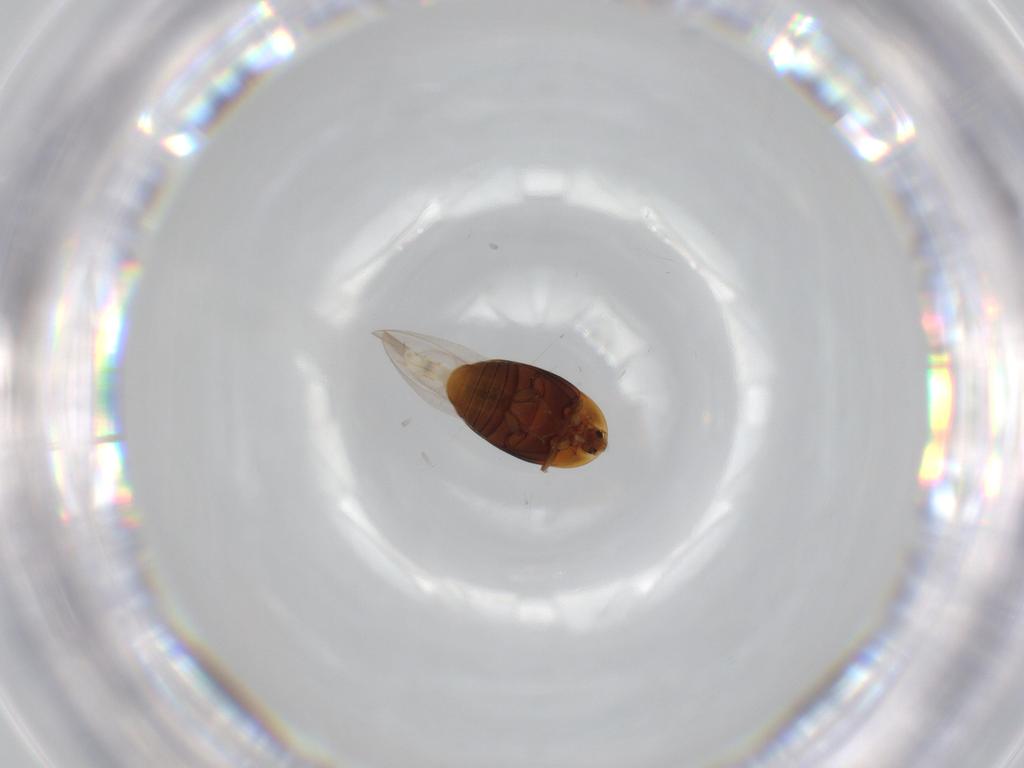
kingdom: Animalia
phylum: Arthropoda
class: Insecta
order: Coleoptera
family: Corylophidae
